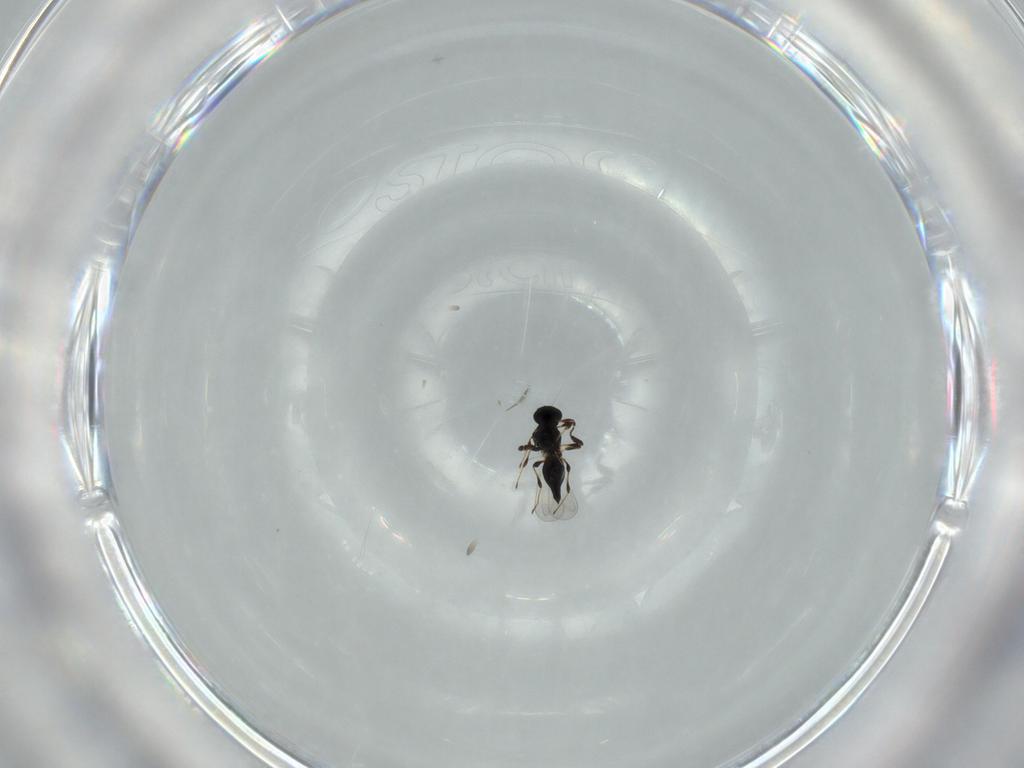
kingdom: Animalia
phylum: Arthropoda
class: Insecta
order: Hymenoptera
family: Platygastridae
